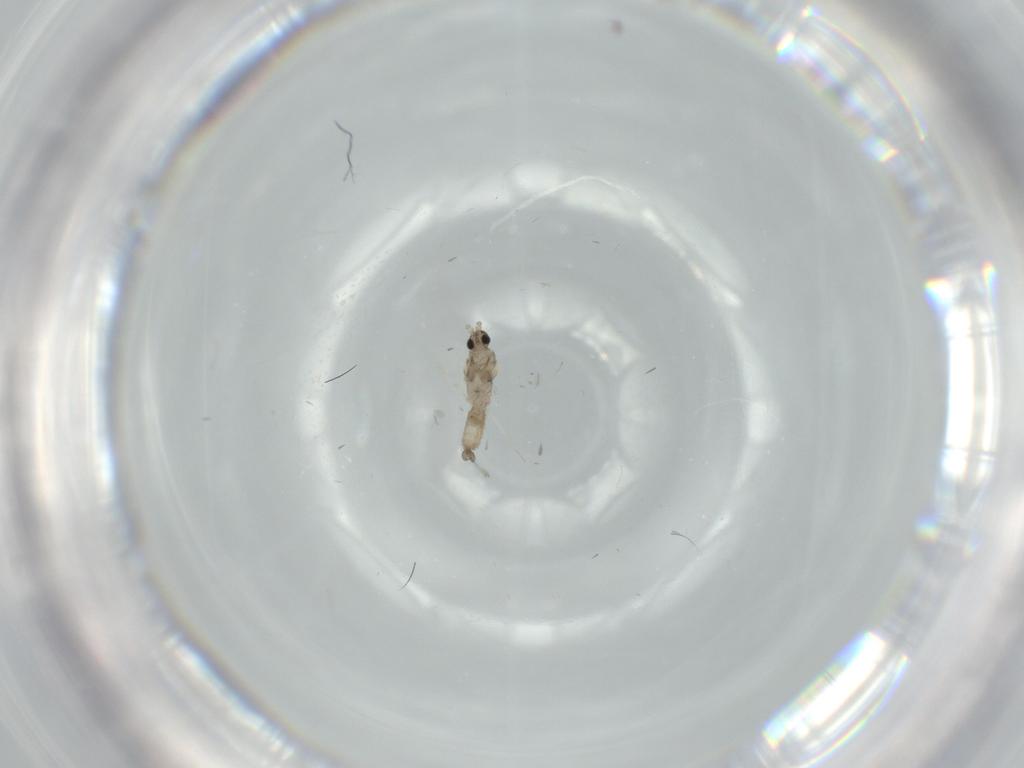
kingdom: Animalia
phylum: Arthropoda
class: Insecta
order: Diptera
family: Cecidomyiidae
